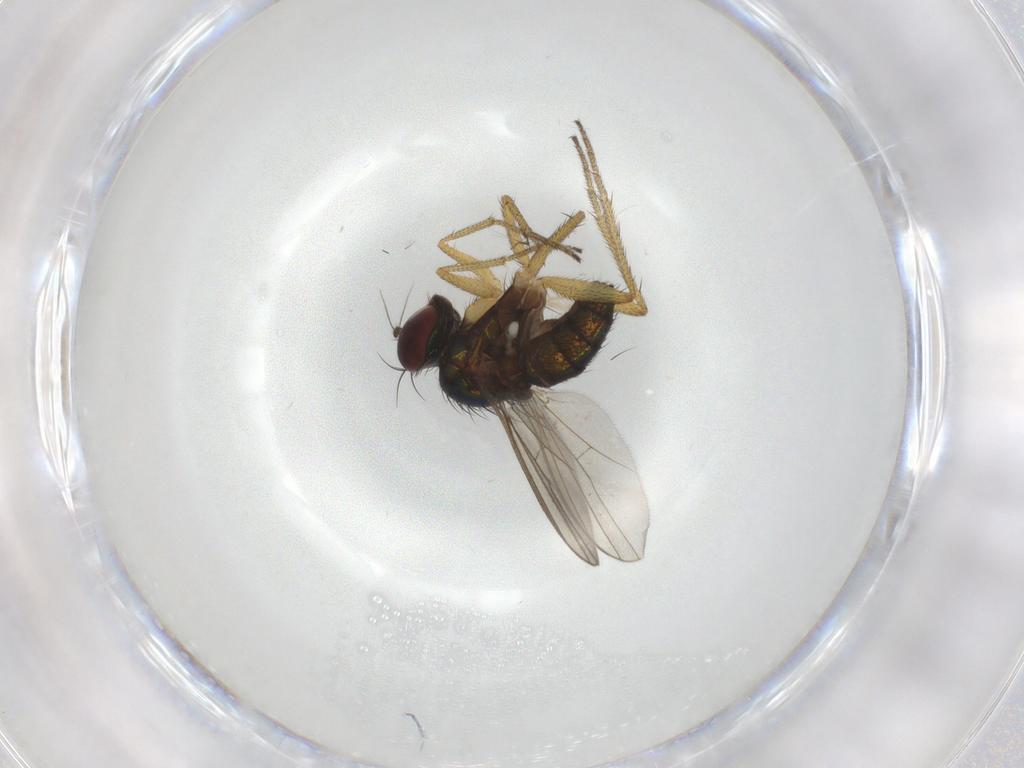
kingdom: Animalia
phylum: Arthropoda
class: Insecta
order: Diptera
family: Dolichopodidae
